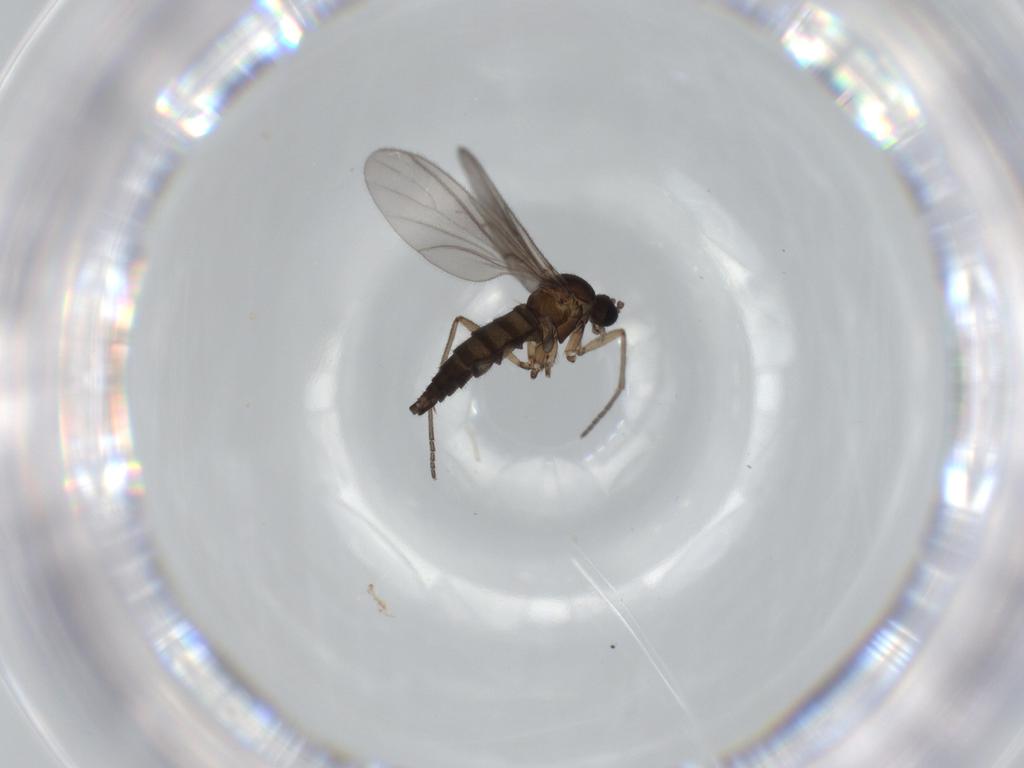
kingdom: Animalia
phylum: Arthropoda
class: Insecta
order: Diptera
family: Sciaridae
